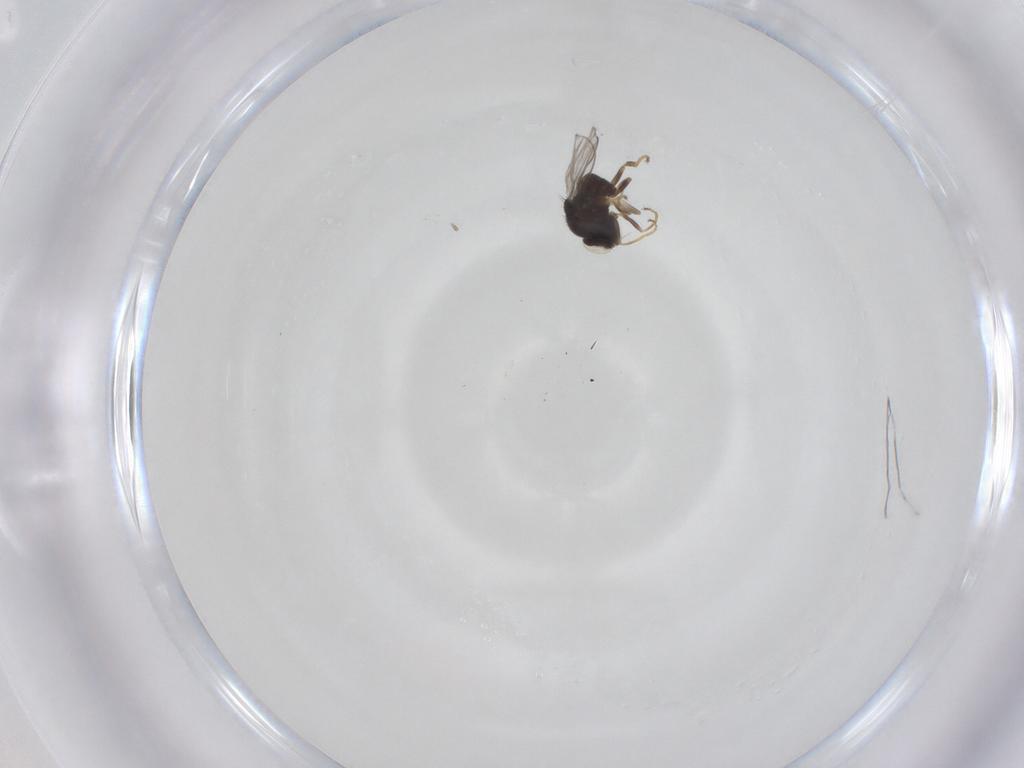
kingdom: Animalia
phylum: Arthropoda
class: Insecta
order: Diptera
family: Chloropidae
